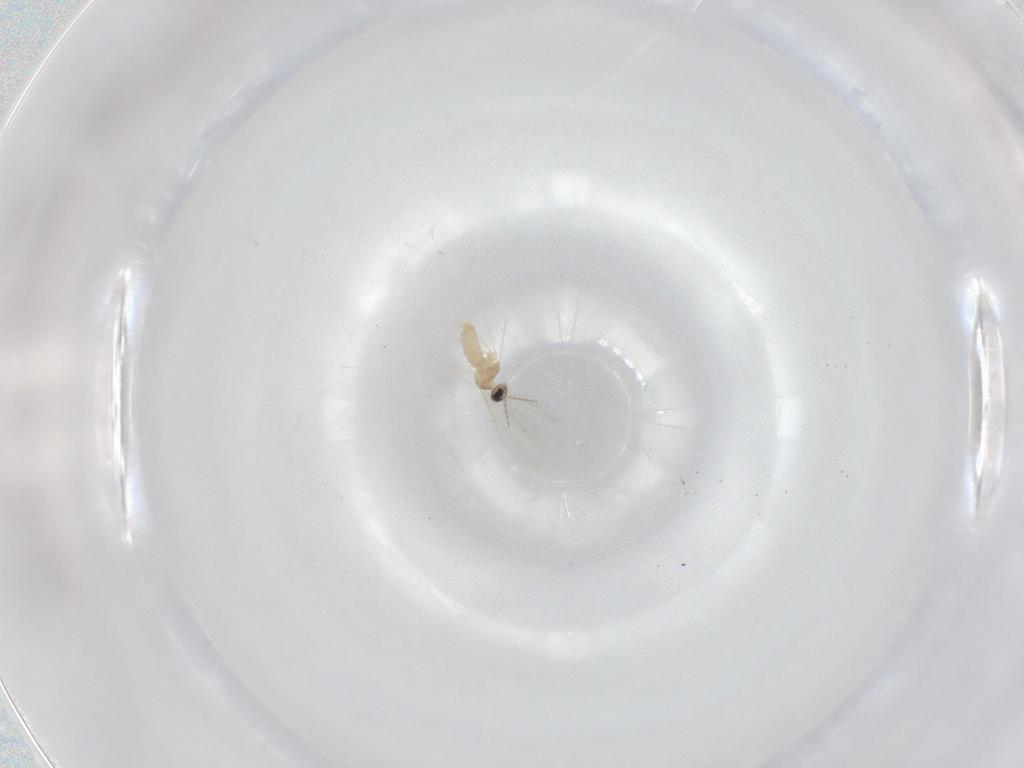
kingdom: Animalia
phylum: Arthropoda
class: Insecta
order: Diptera
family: Cecidomyiidae
